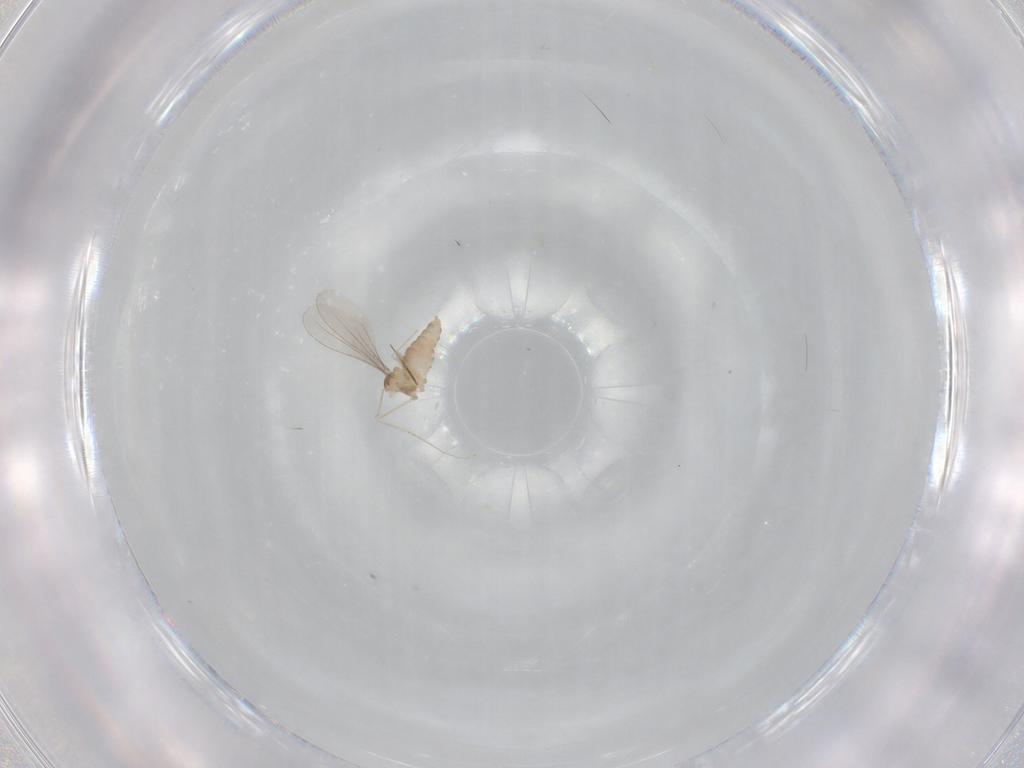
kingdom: Animalia
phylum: Arthropoda
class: Insecta
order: Diptera
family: Cecidomyiidae
